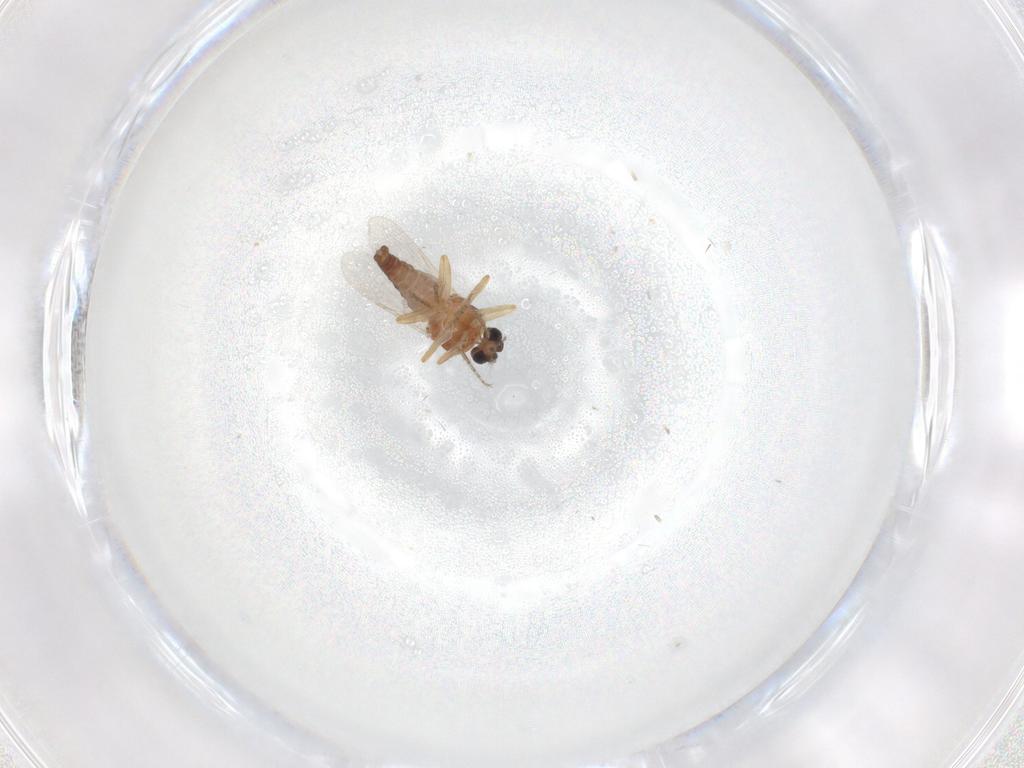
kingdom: Animalia
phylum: Arthropoda
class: Insecta
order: Diptera
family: Ceratopogonidae
